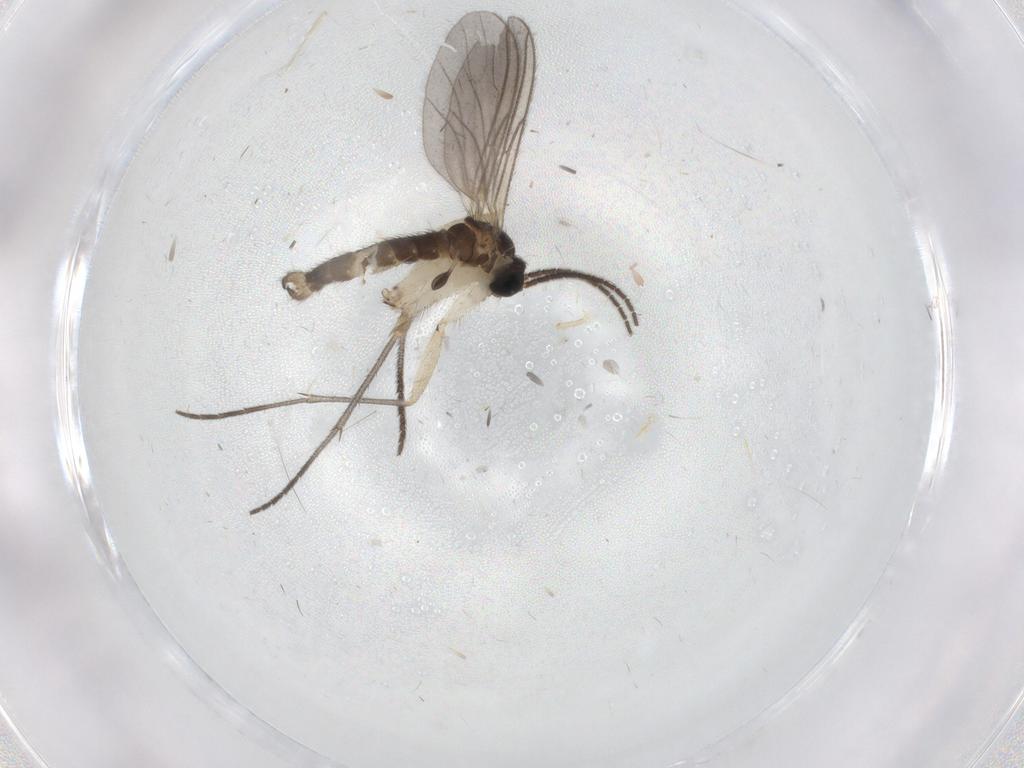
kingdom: Animalia
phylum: Arthropoda
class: Insecta
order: Diptera
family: Sciaridae
